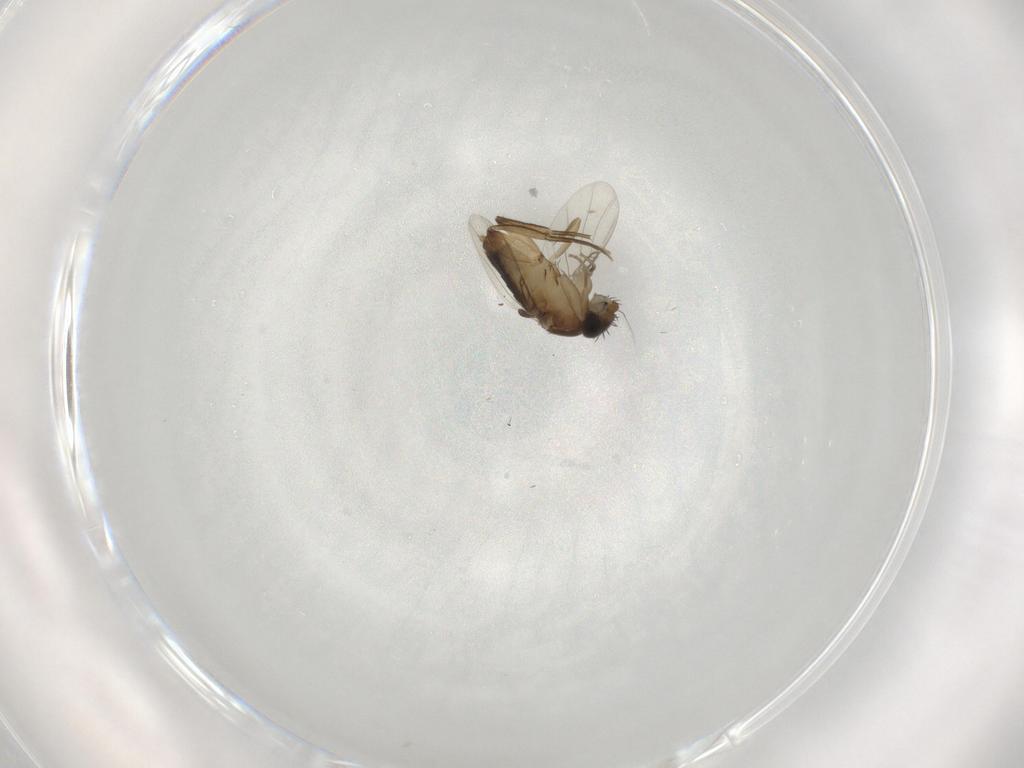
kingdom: Animalia
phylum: Arthropoda
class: Insecta
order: Diptera
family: Phoridae
